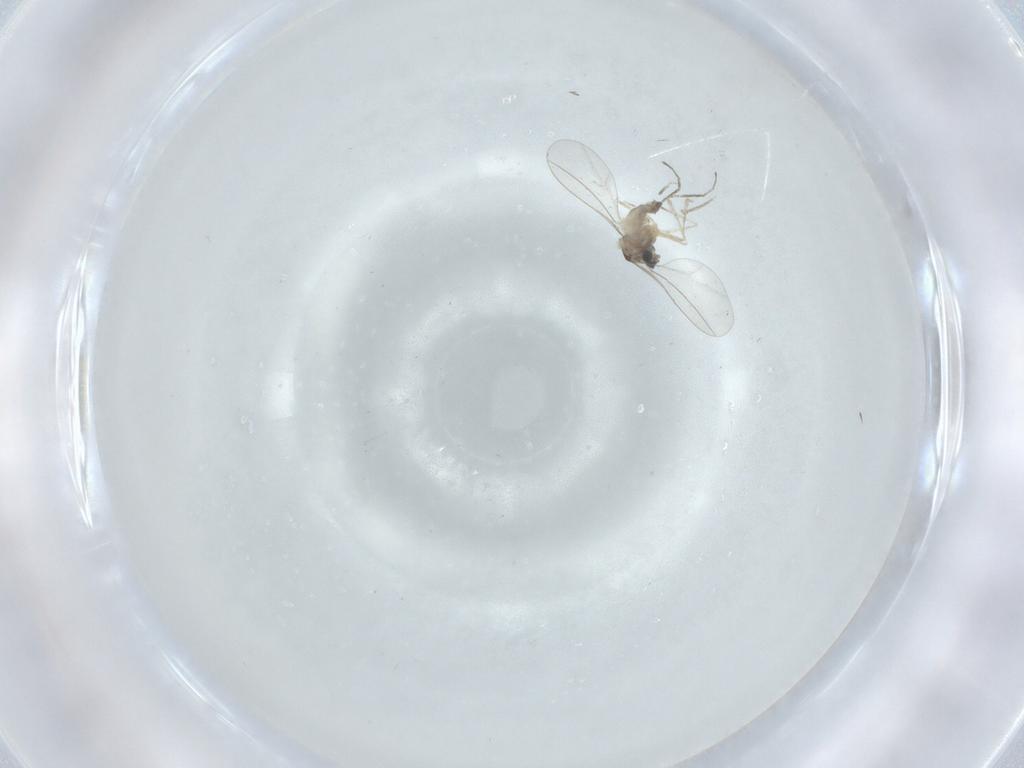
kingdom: Animalia
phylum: Arthropoda
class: Insecta
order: Diptera
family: Cecidomyiidae
